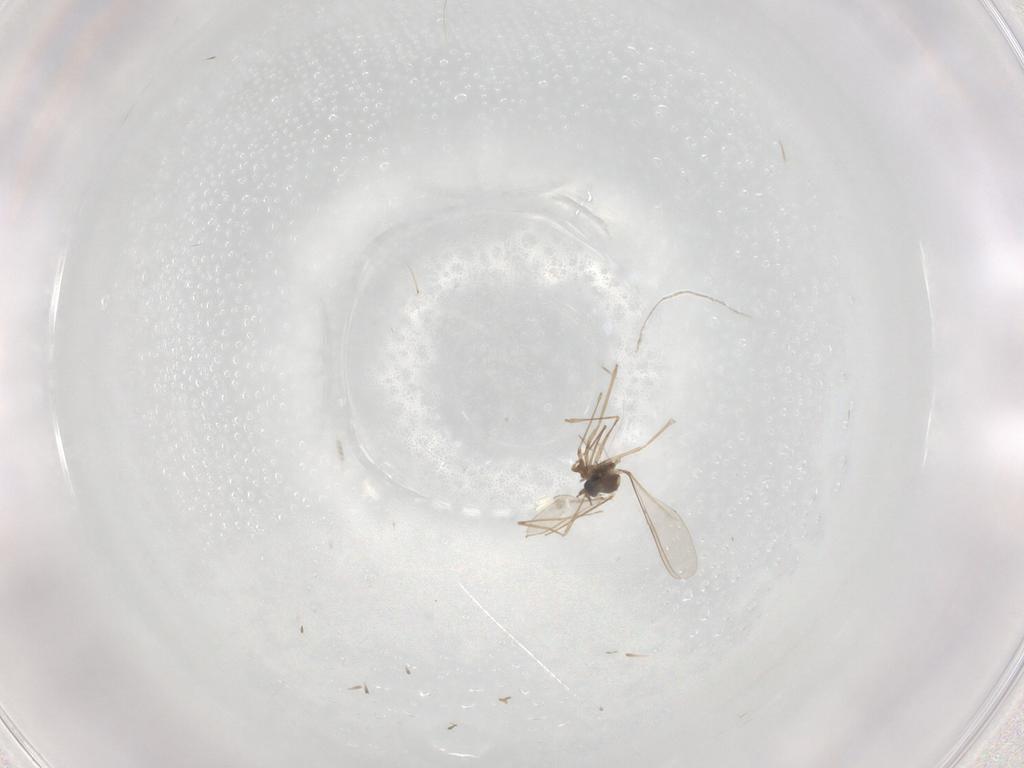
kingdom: Animalia
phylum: Arthropoda
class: Insecta
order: Diptera
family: Cecidomyiidae
